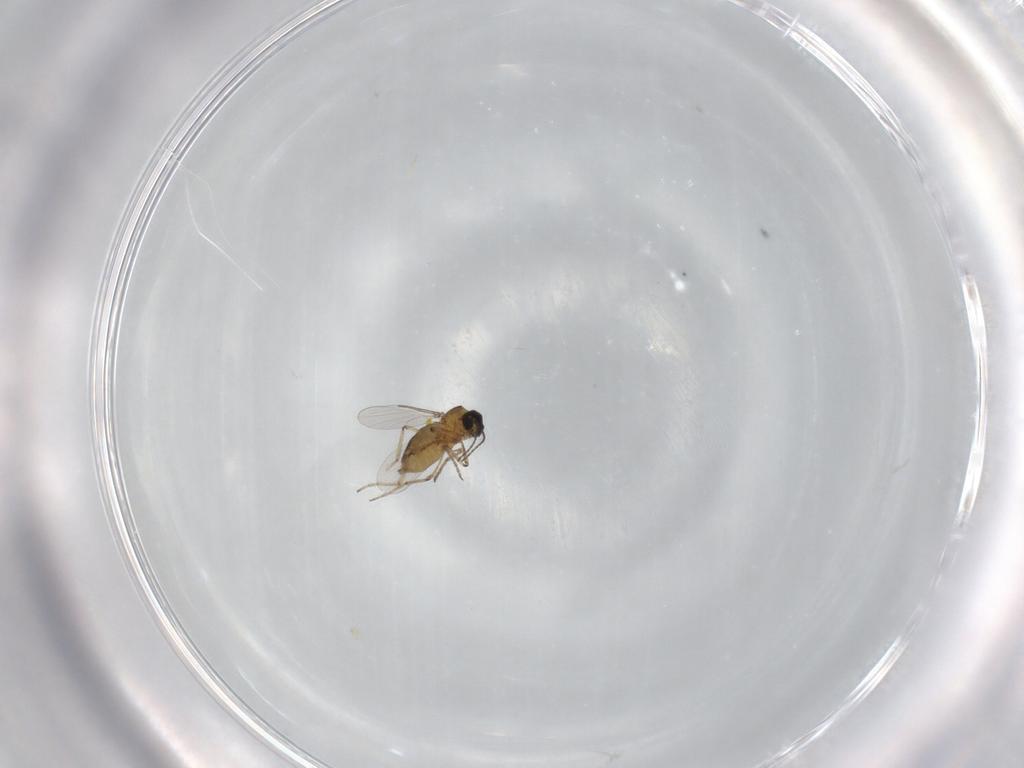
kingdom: Animalia
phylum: Arthropoda
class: Insecta
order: Diptera
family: Ceratopogonidae
